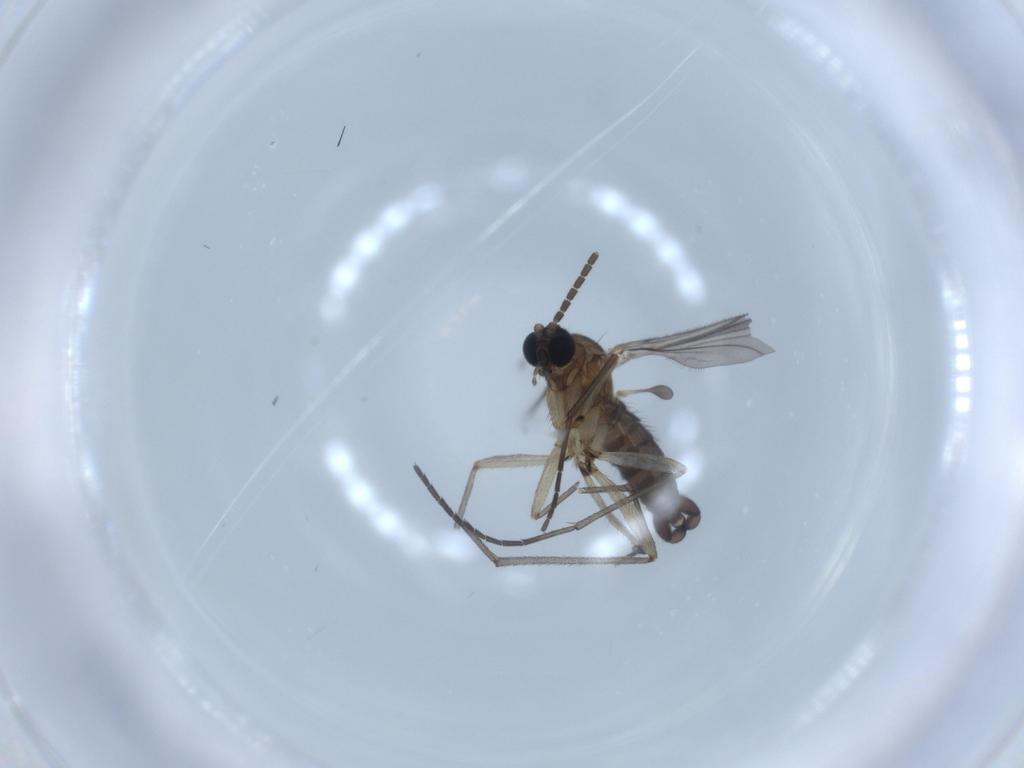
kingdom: Animalia
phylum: Arthropoda
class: Insecta
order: Diptera
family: Sciaridae
